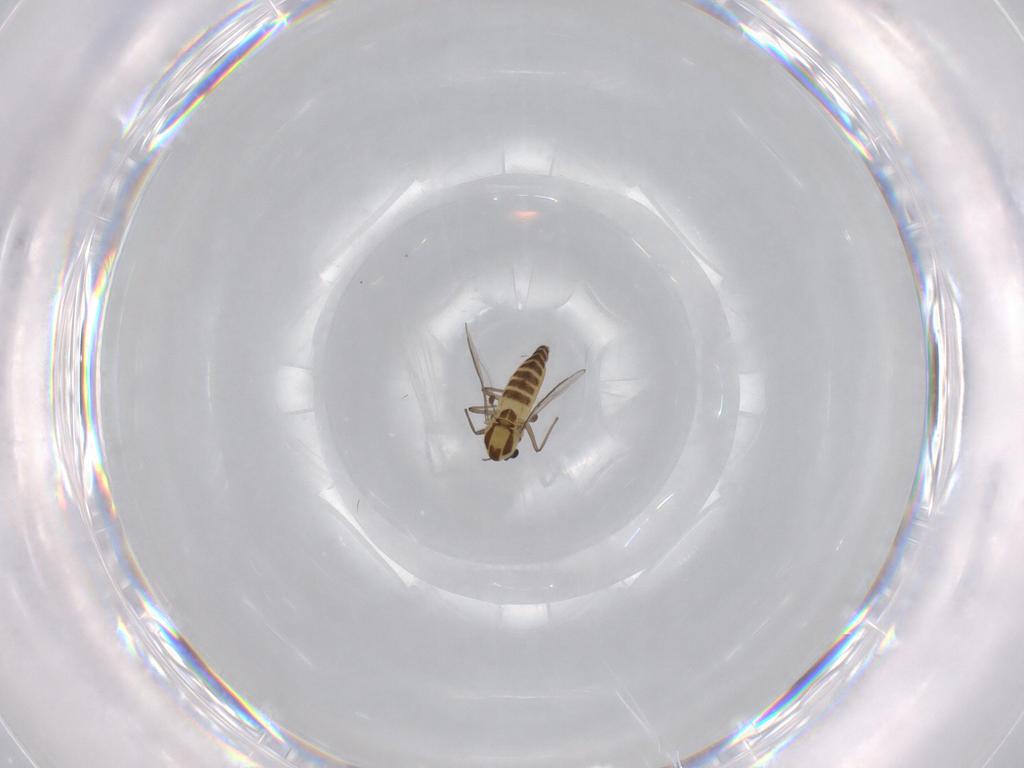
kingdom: Animalia
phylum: Arthropoda
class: Insecta
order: Diptera
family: Chironomidae
